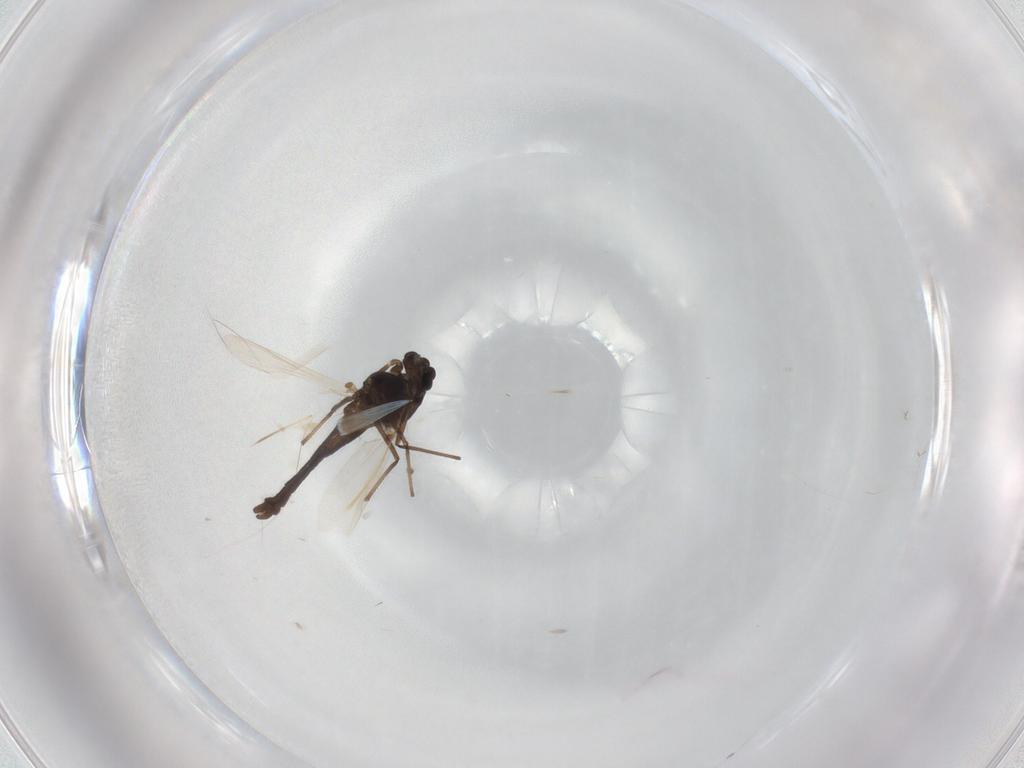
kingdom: Animalia
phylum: Arthropoda
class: Insecta
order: Diptera
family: Chironomidae
